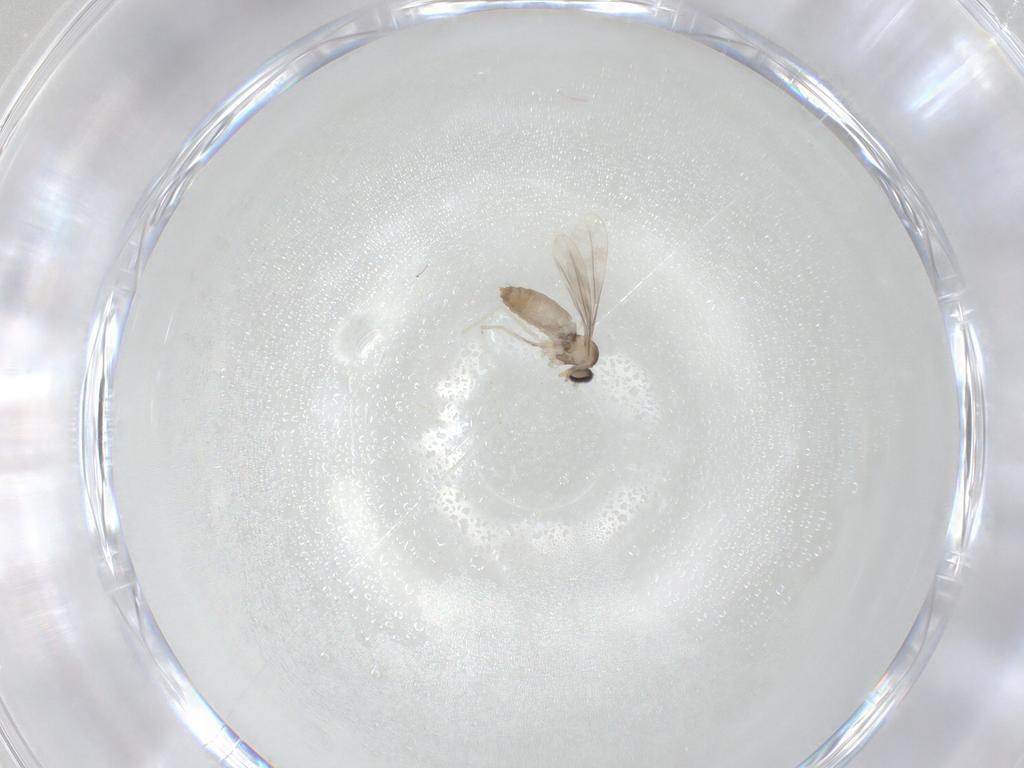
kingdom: Animalia
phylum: Arthropoda
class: Insecta
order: Diptera
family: Cecidomyiidae
